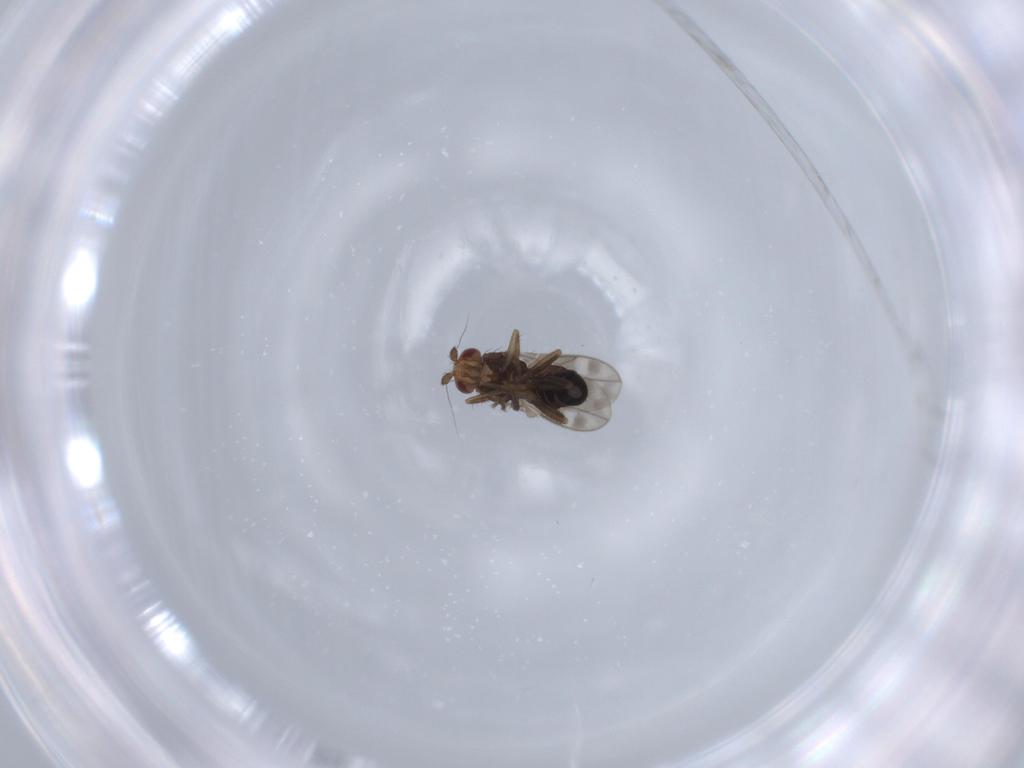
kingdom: Animalia
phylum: Arthropoda
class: Insecta
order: Diptera
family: Sphaeroceridae
